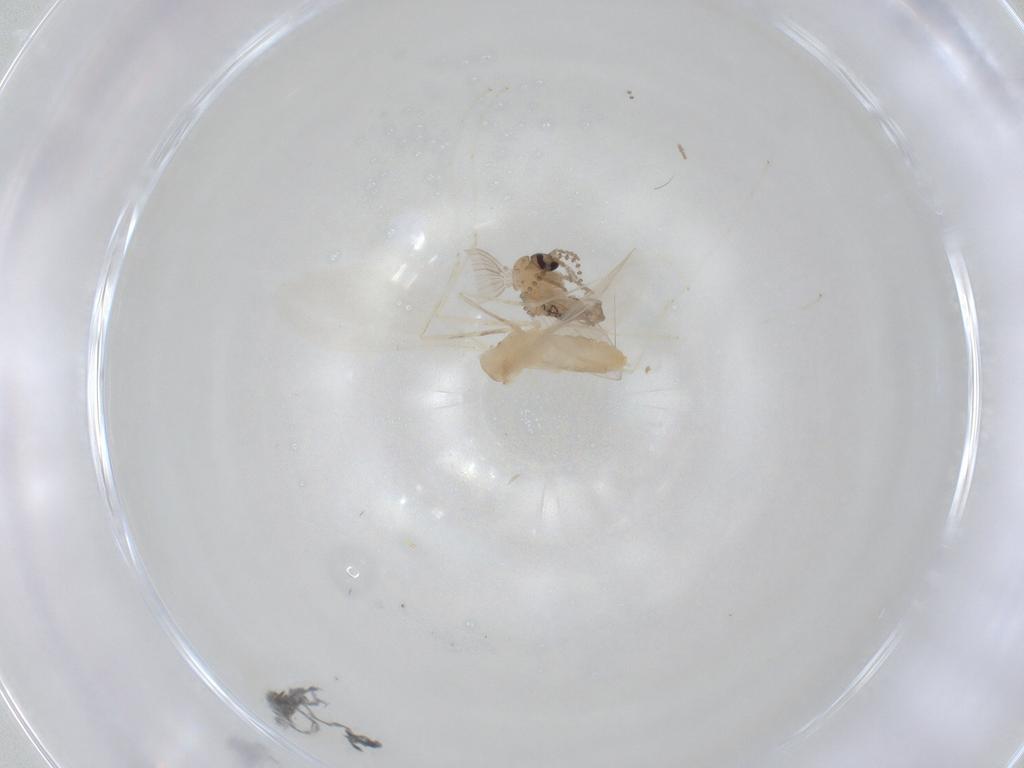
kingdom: Animalia
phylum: Arthropoda
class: Insecta
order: Diptera
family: Cecidomyiidae
